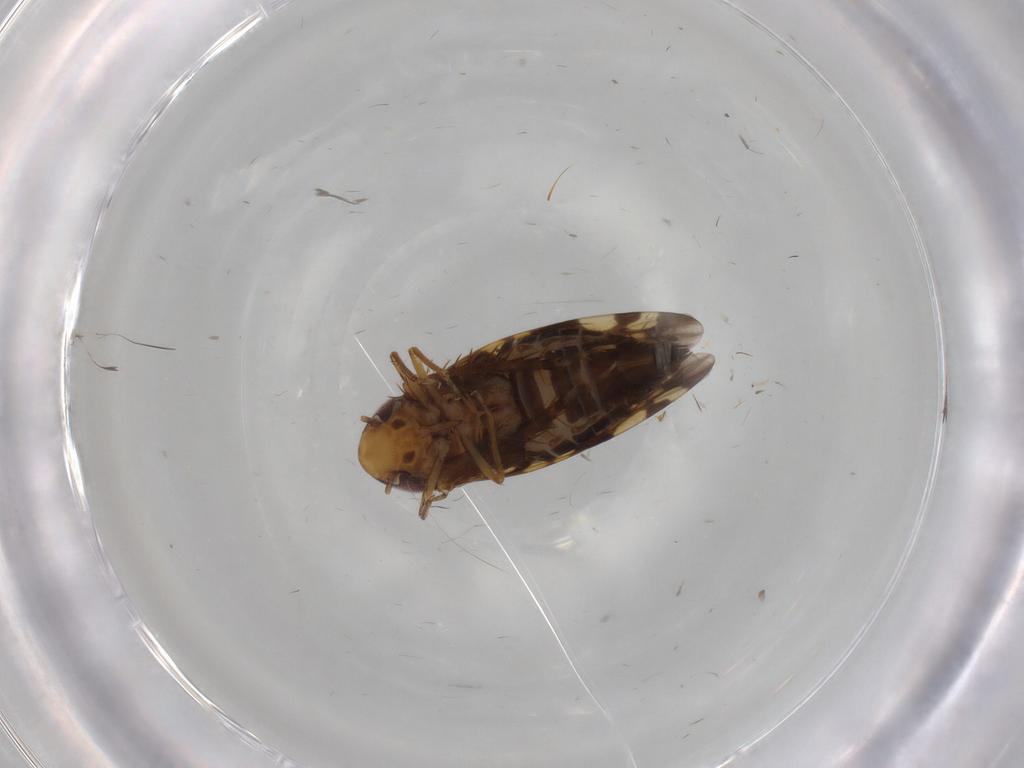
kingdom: Animalia
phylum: Arthropoda
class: Insecta
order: Hemiptera
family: Cicadellidae
